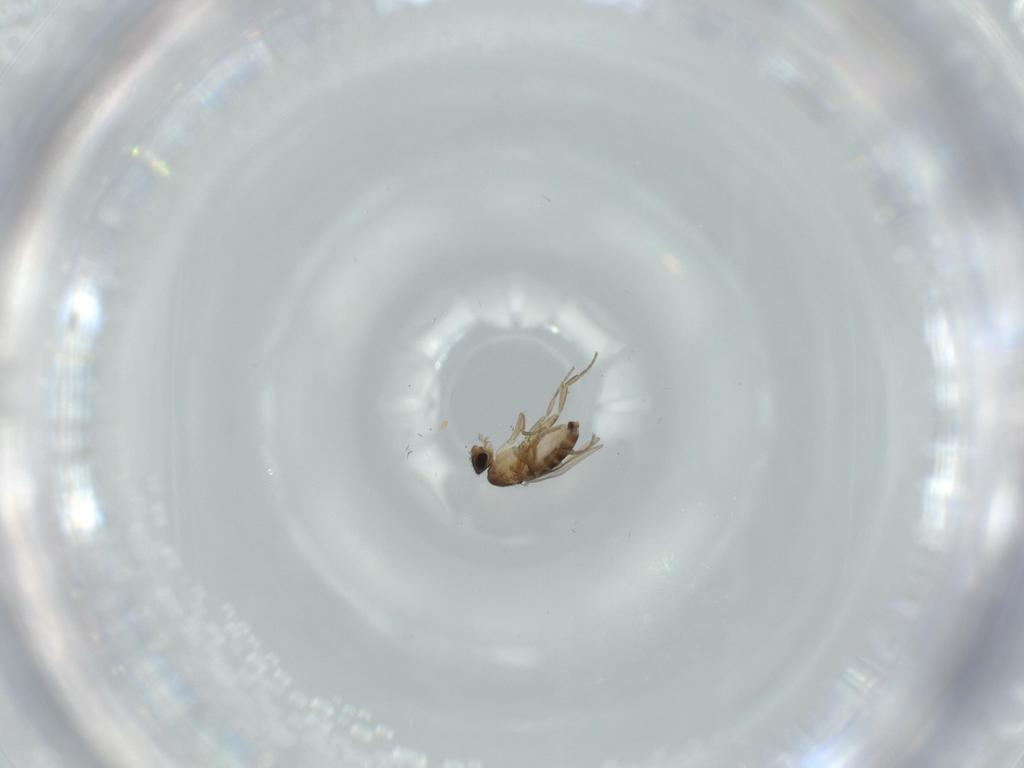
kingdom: Animalia
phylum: Arthropoda
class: Insecta
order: Diptera
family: Phoridae
